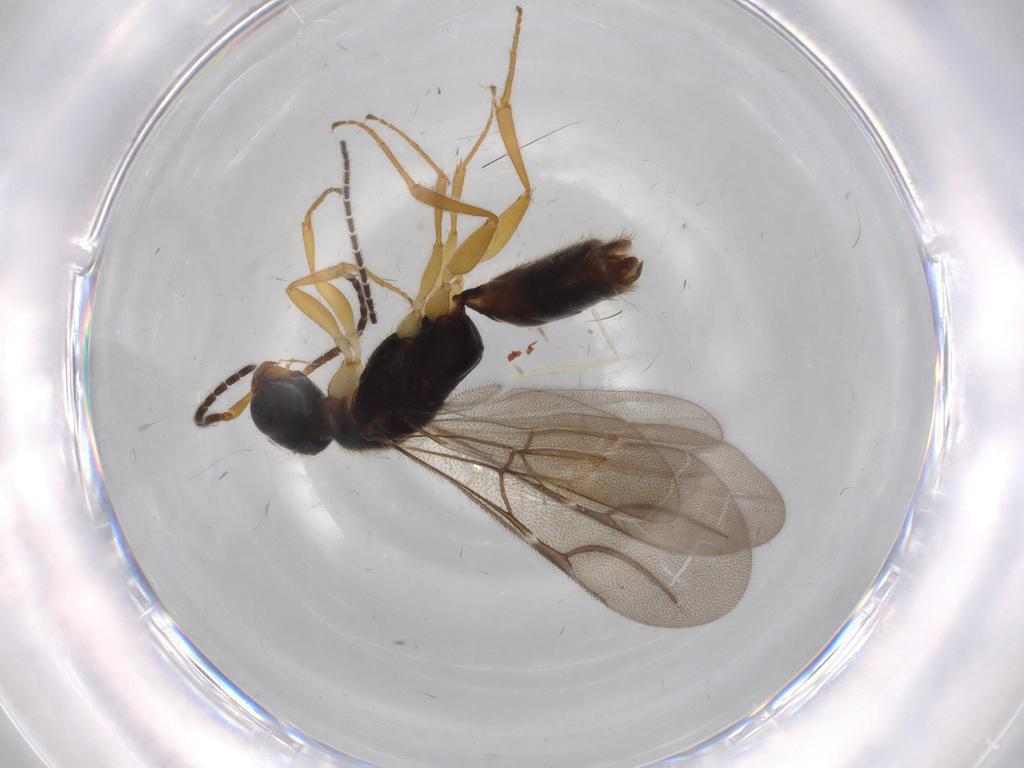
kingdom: Animalia
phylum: Arthropoda
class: Insecta
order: Hymenoptera
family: Bethylidae
